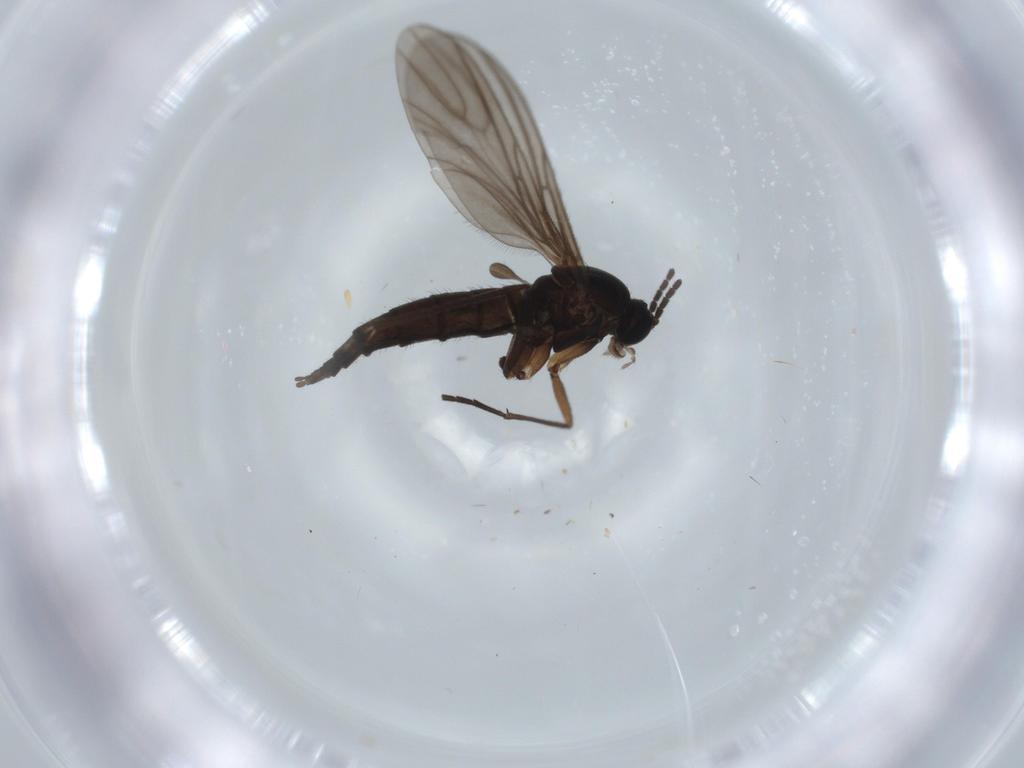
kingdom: Animalia
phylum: Arthropoda
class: Insecta
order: Diptera
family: Sciaridae
